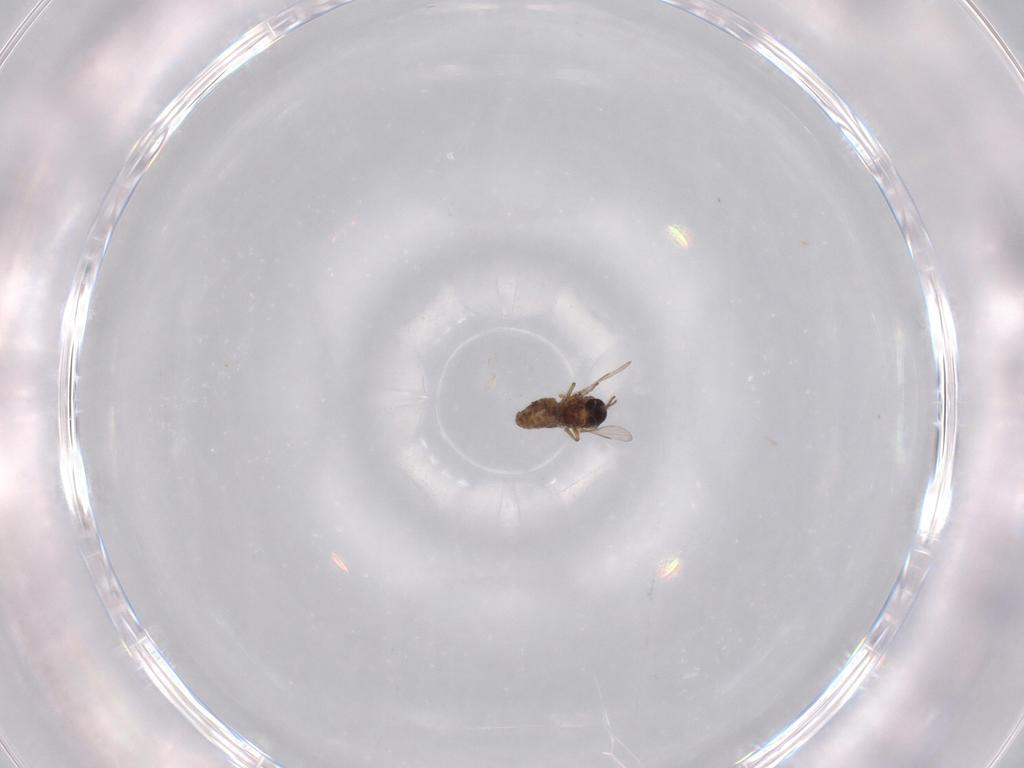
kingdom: Animalia
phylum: Arthropoda
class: Insecta
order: Diptera
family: Ceratopogonidae
